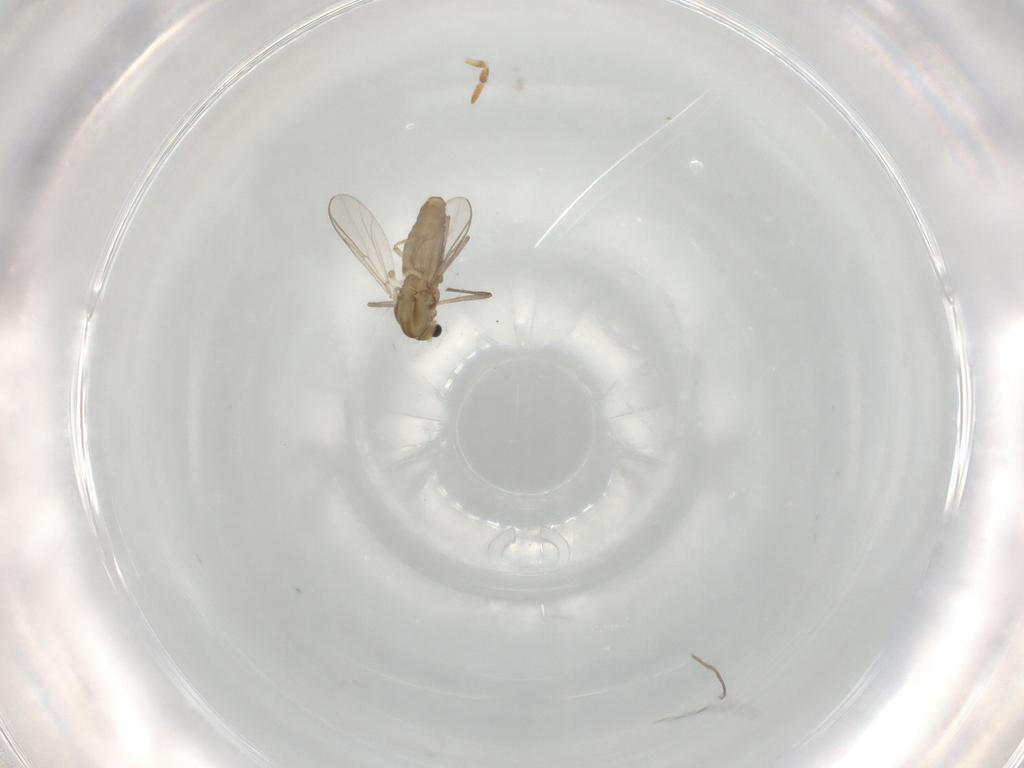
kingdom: Animalia
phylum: Arthropoda
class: Insecta
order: Diptera
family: Chironomidae
